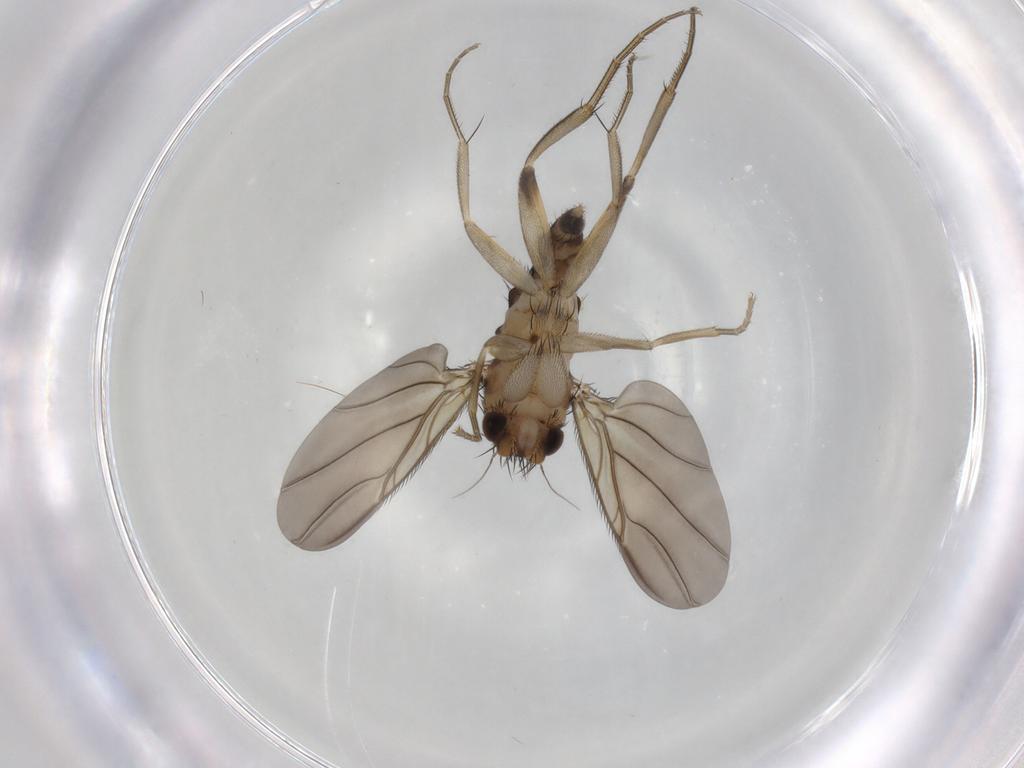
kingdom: Animalia
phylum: Arthropoda
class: Insecta
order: Diptera
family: Phoridae
